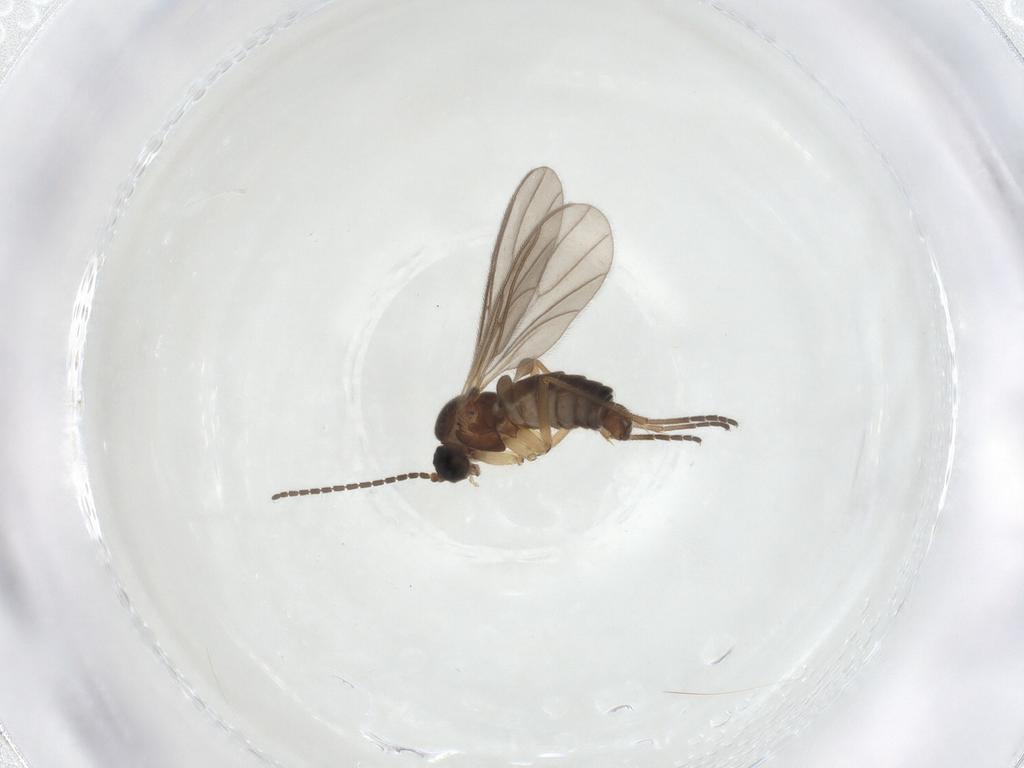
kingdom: Animalia
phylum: Arthropoda
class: Insecta
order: Diptera
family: Sciaridae
